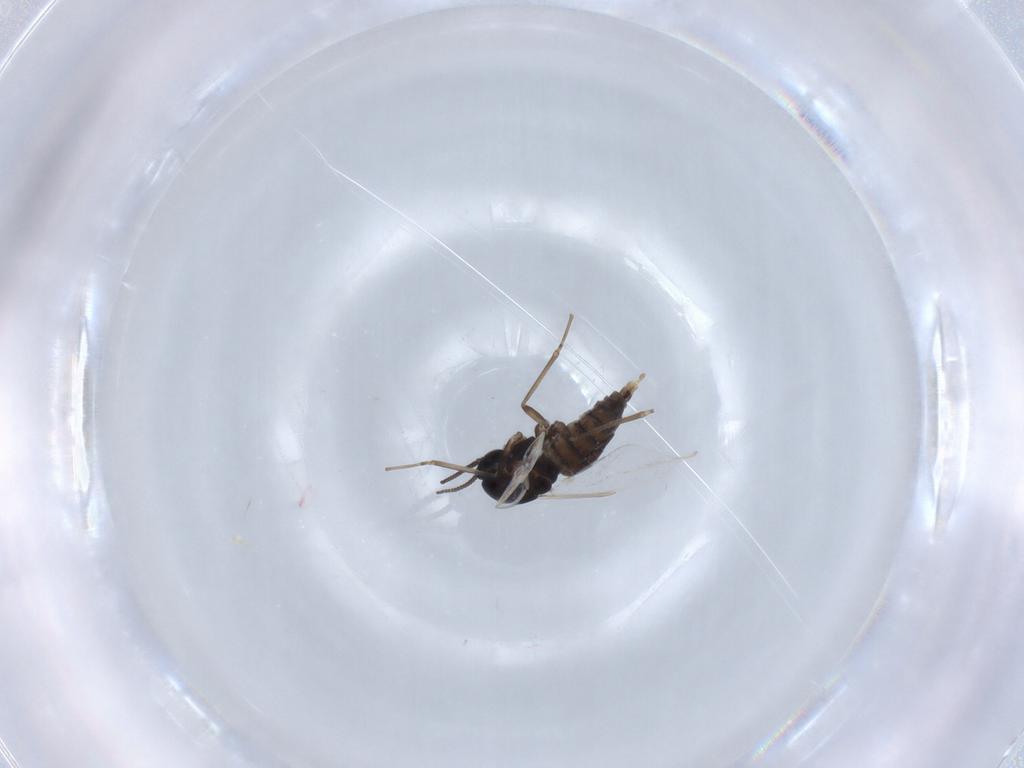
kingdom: Animalia
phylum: Arthropoda
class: Insecta
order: Diptera
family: Cecidomyiidae
